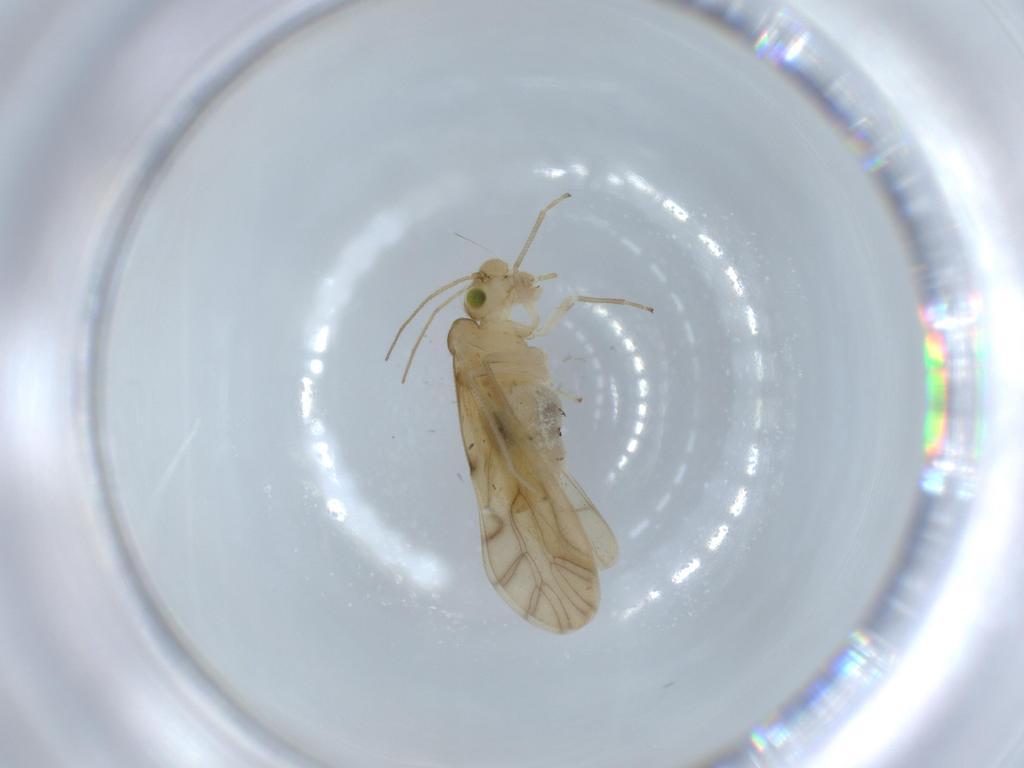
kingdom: Animalia
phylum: Arthropoda
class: Insecta
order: Psocodea
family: Caeciliusidae
